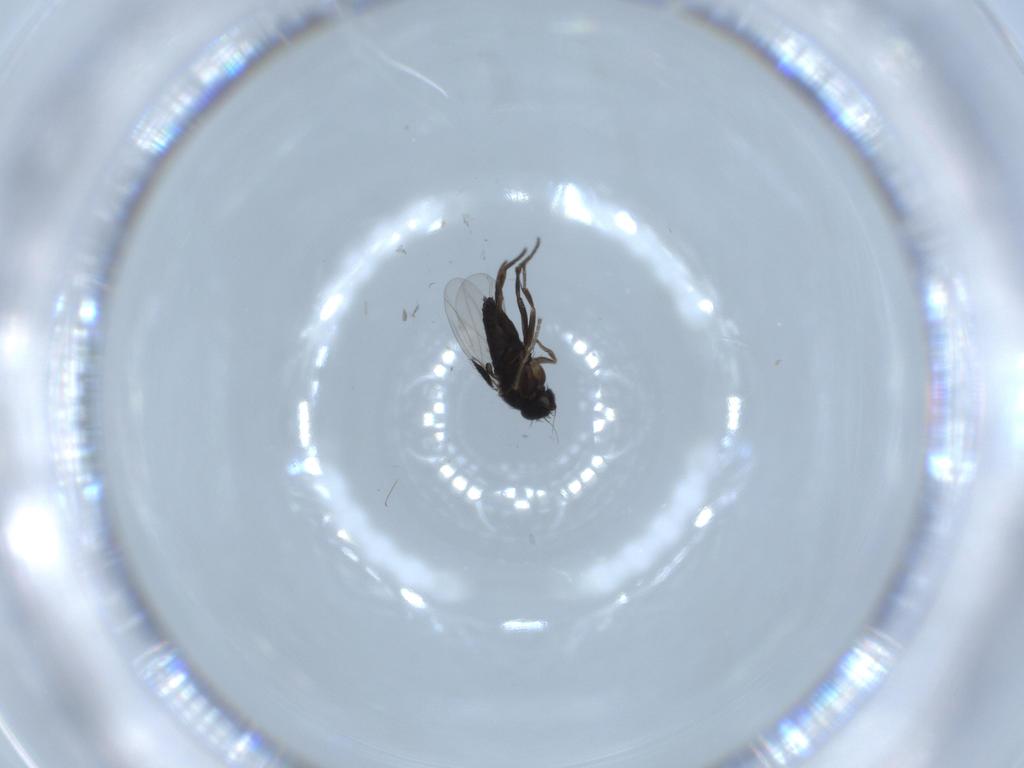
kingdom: Animalia
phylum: Arthropoda
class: Insecta
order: Diptera
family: Phoridae
